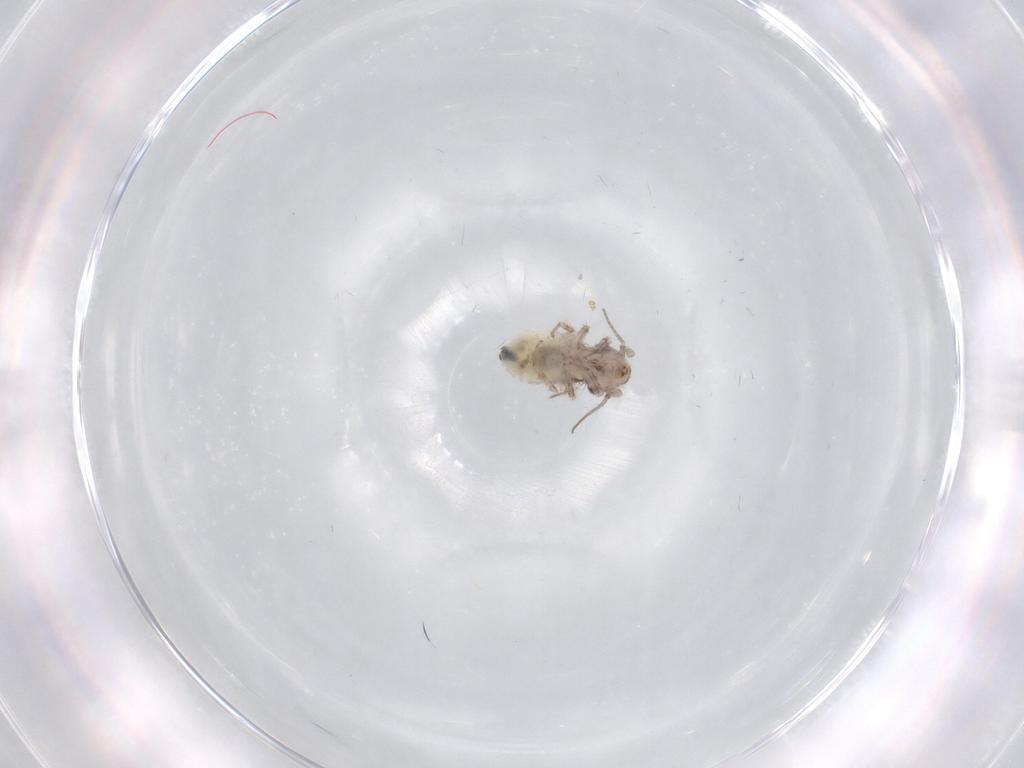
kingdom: Animalia
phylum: Arthropoda
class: Insecta
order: Psocodea
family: Lepidopsocidae
